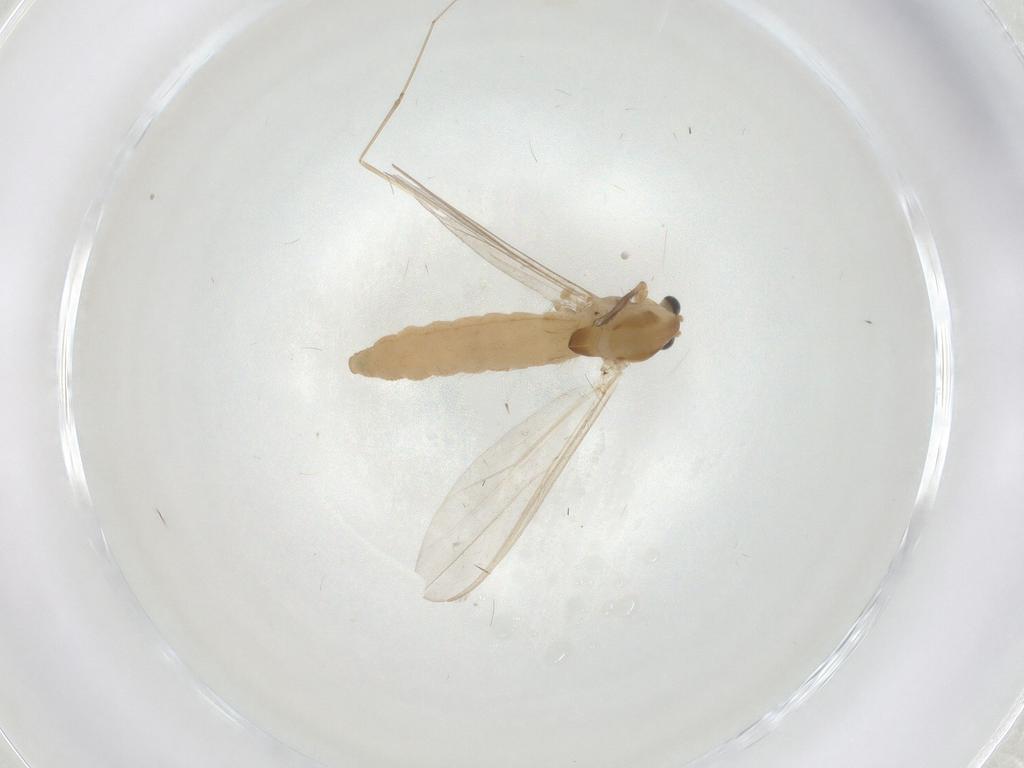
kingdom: Animalia
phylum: Arthropoda
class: Insecta
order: Diptera
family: Chironomidae
